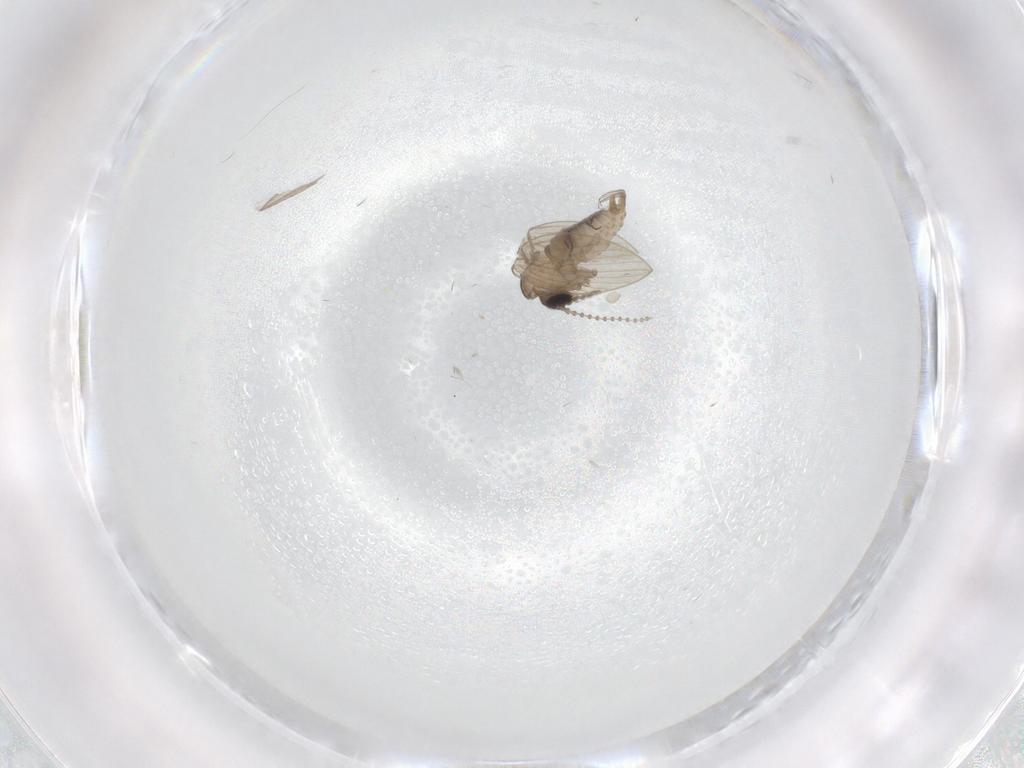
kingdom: Animalia
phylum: Arthropoda
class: Insecta
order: Diptera
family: Psychodidae
